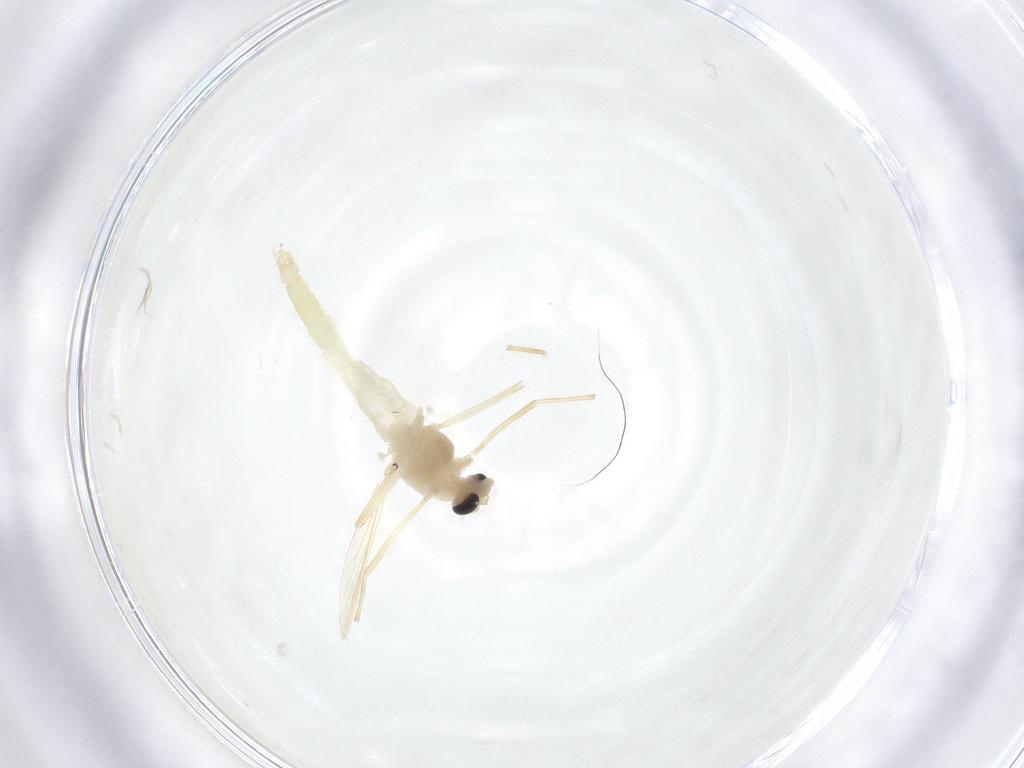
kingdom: Animalia
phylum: Arthropoda
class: Insecta
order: Diptera
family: Chironomidae
